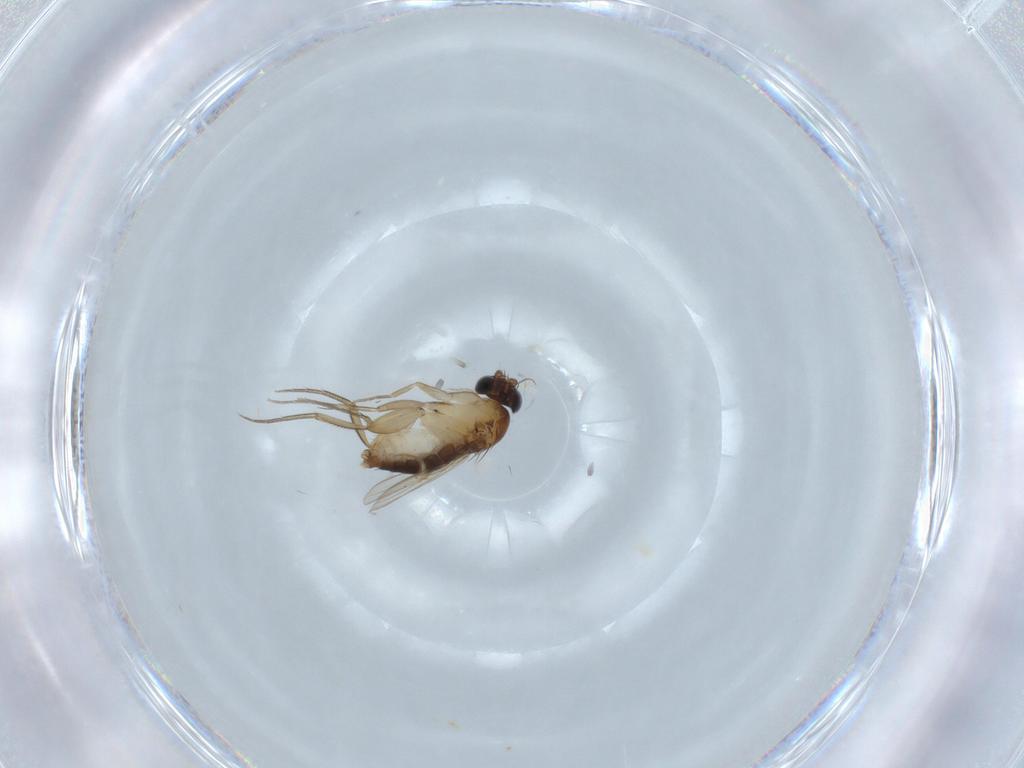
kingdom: Animalia
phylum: Arthropoda
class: Insecta
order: Diptera
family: Phoridae
